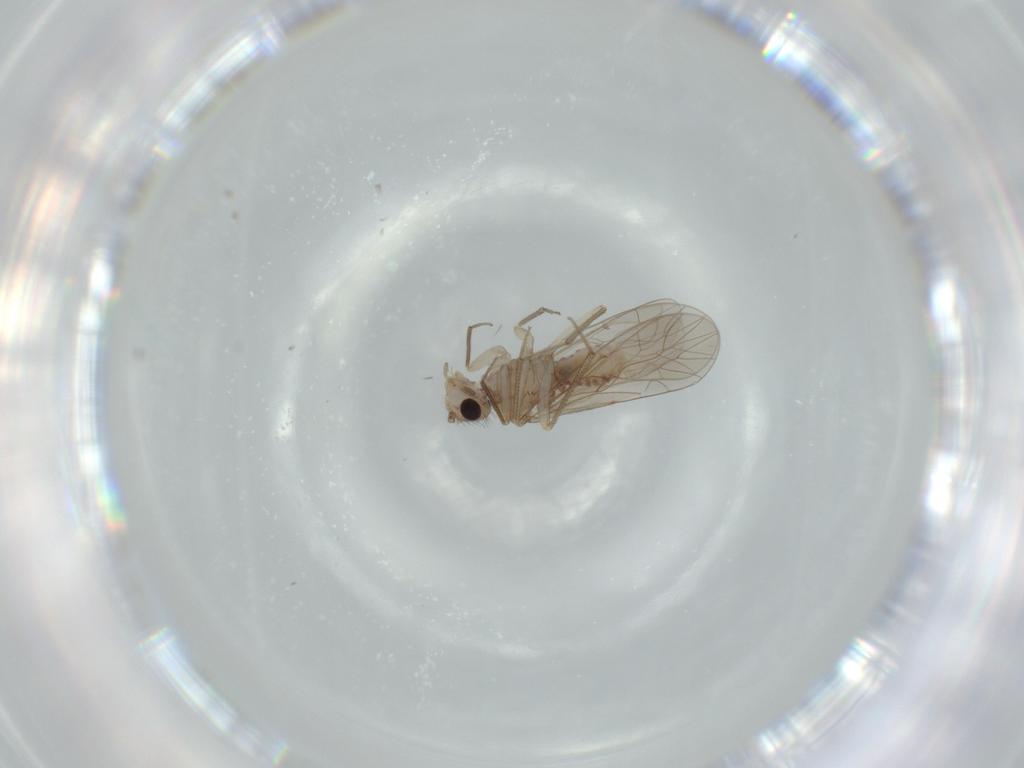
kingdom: Animalia
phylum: Arthropoda
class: Insecta
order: Psocodea
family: Caeciliusidae
